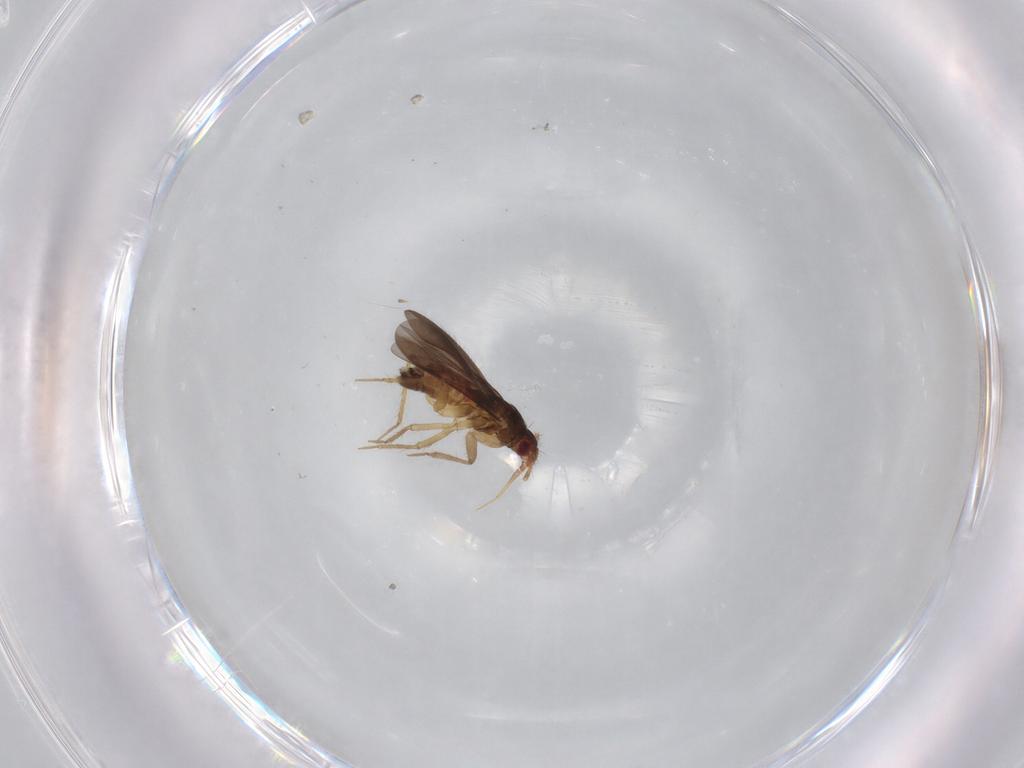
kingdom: Animalia
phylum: Arthropoda
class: Insecta
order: Hemiptera
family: Ceratocombidae
